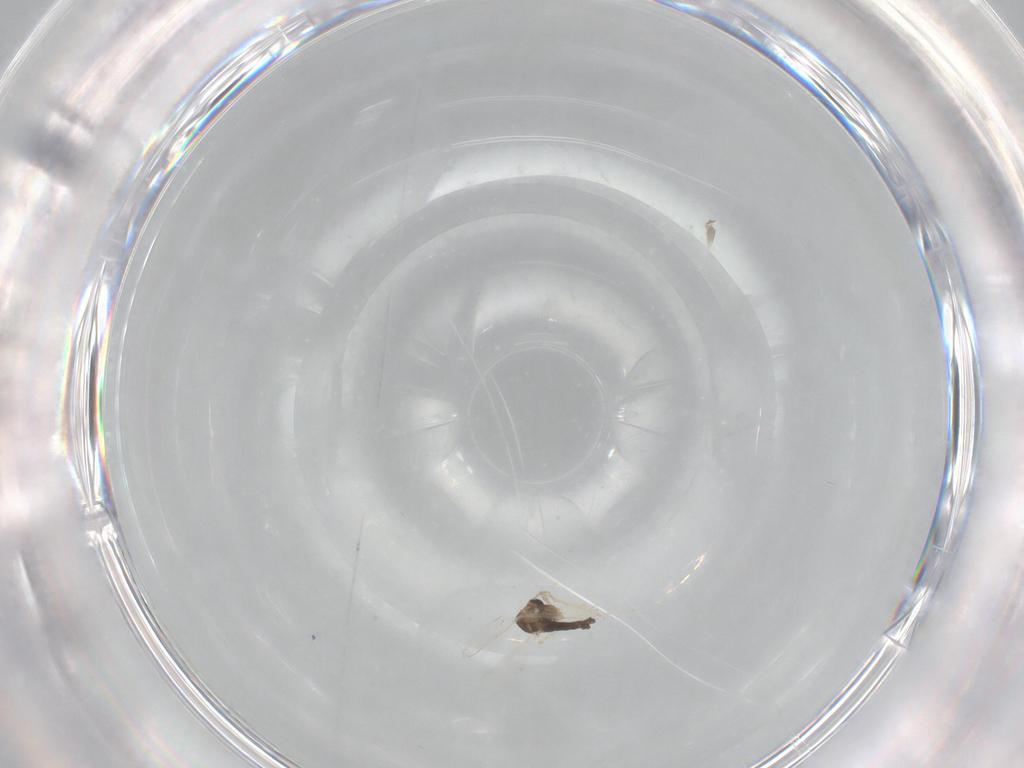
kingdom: Animalia
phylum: Arthropoda
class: Insecta
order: Diptera
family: Chironomidae
